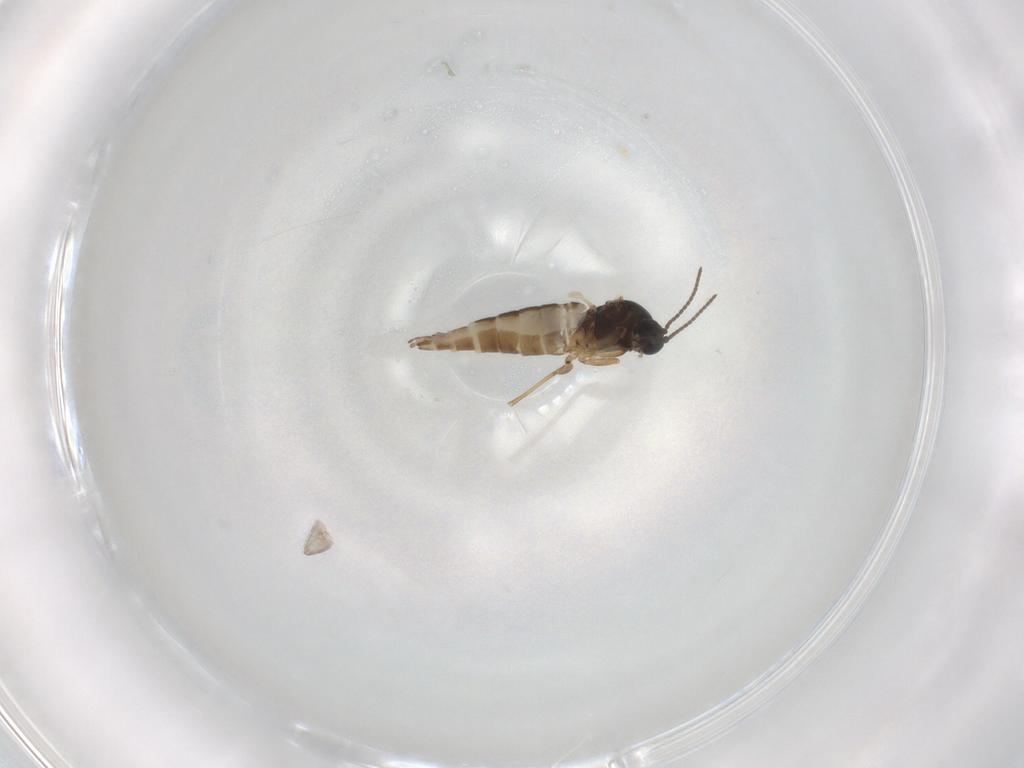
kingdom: Animalia
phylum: Arthropoda
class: Insecta
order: Diptera
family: Sciaridae
